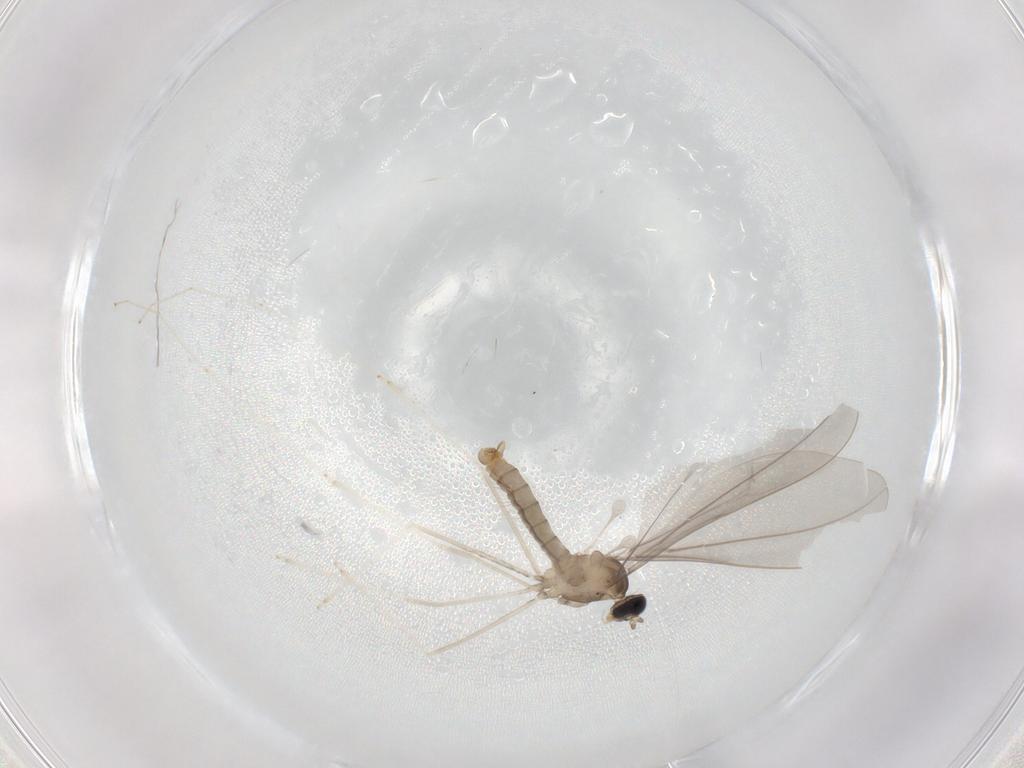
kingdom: Animalia
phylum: Arthropoda
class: Insecta
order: Diptera
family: Cecidomyiidae
